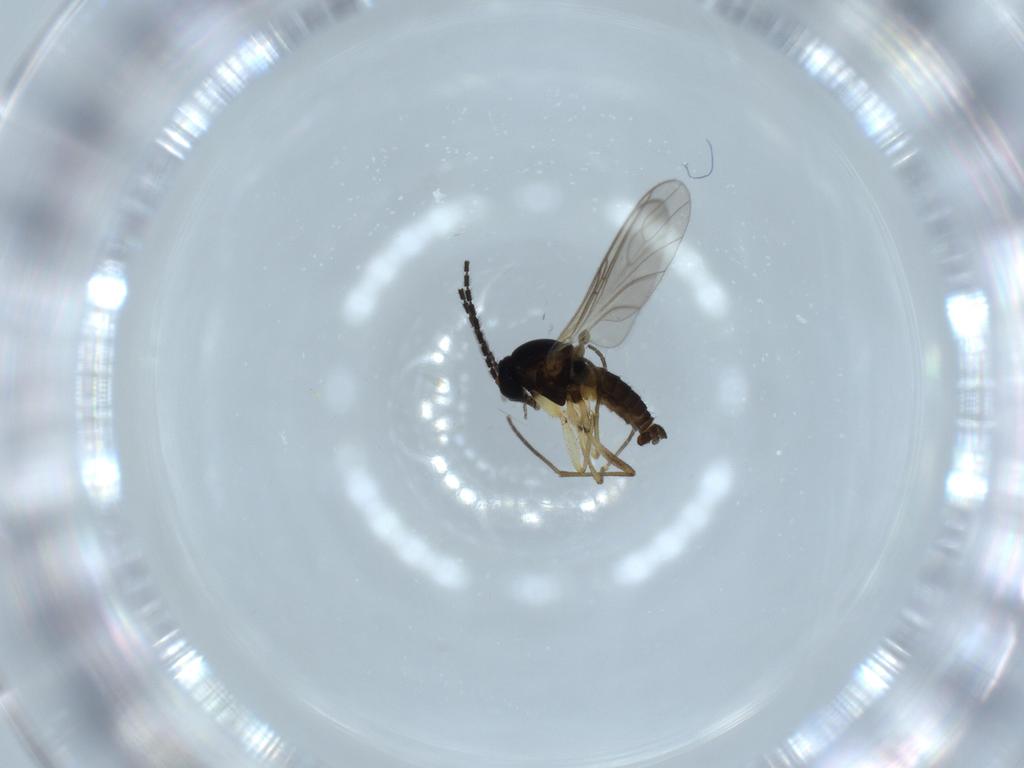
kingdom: Animalia
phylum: Arthropoda
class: Insecta
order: Diptera
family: Sciaridae
